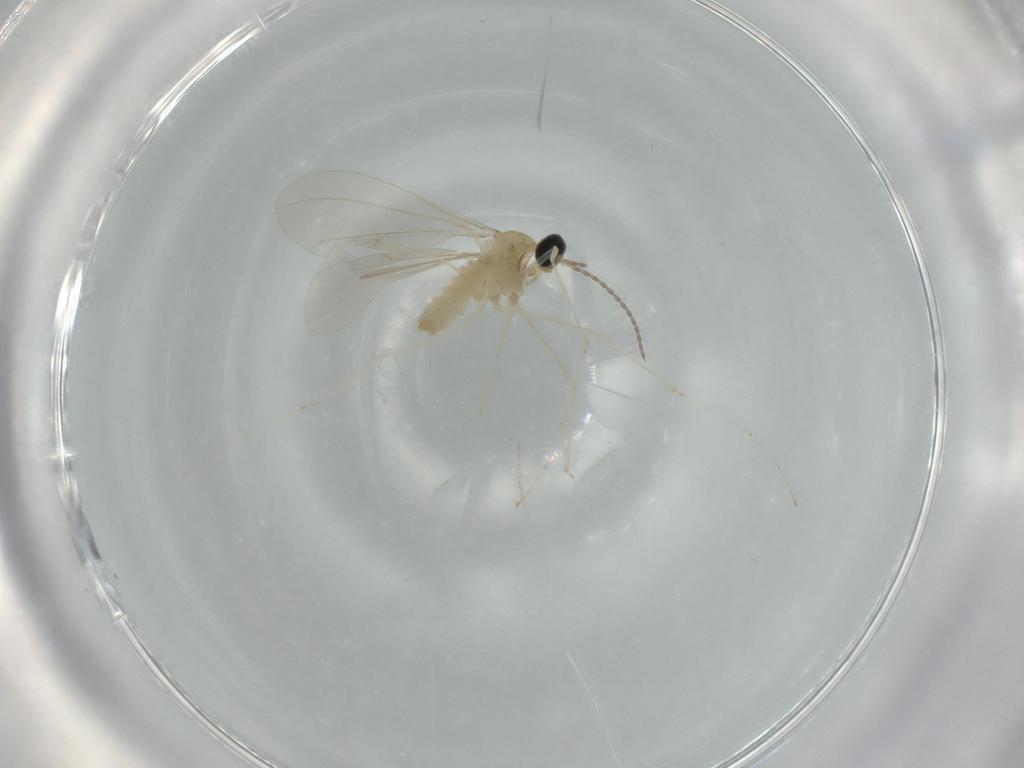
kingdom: Animalia
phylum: Arthropoda
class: Insecta
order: Diptera
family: Cecidomyiidae
